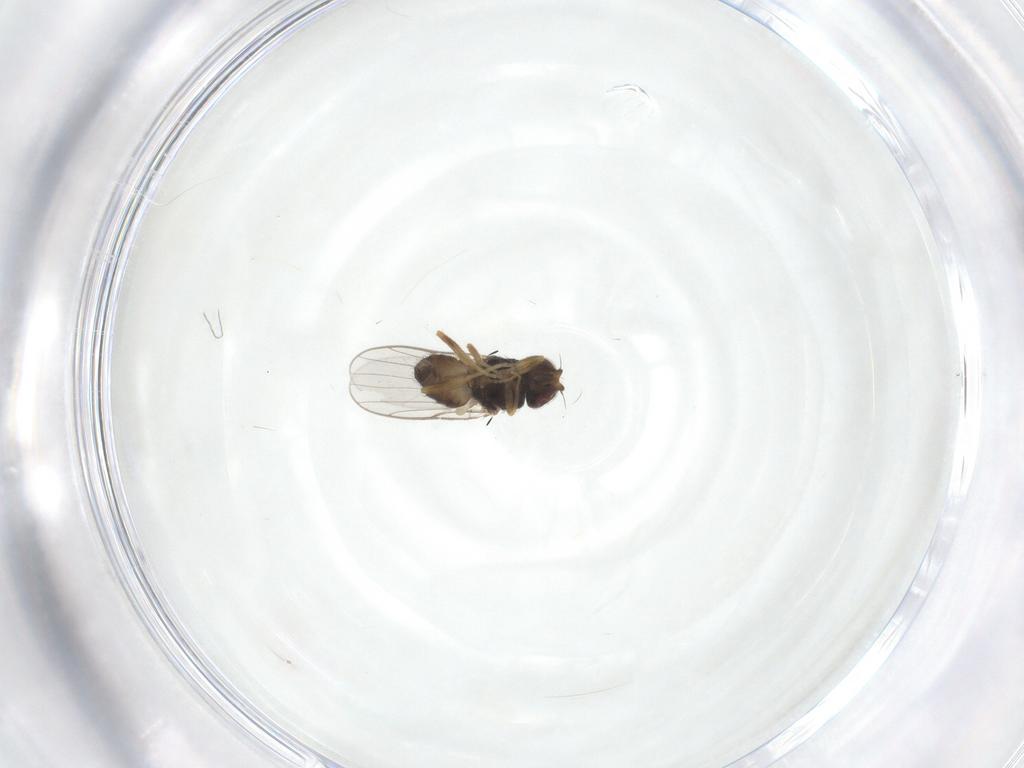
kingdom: Animalia
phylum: Arthropoda
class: Insecta
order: Diptera
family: Chloropidae
